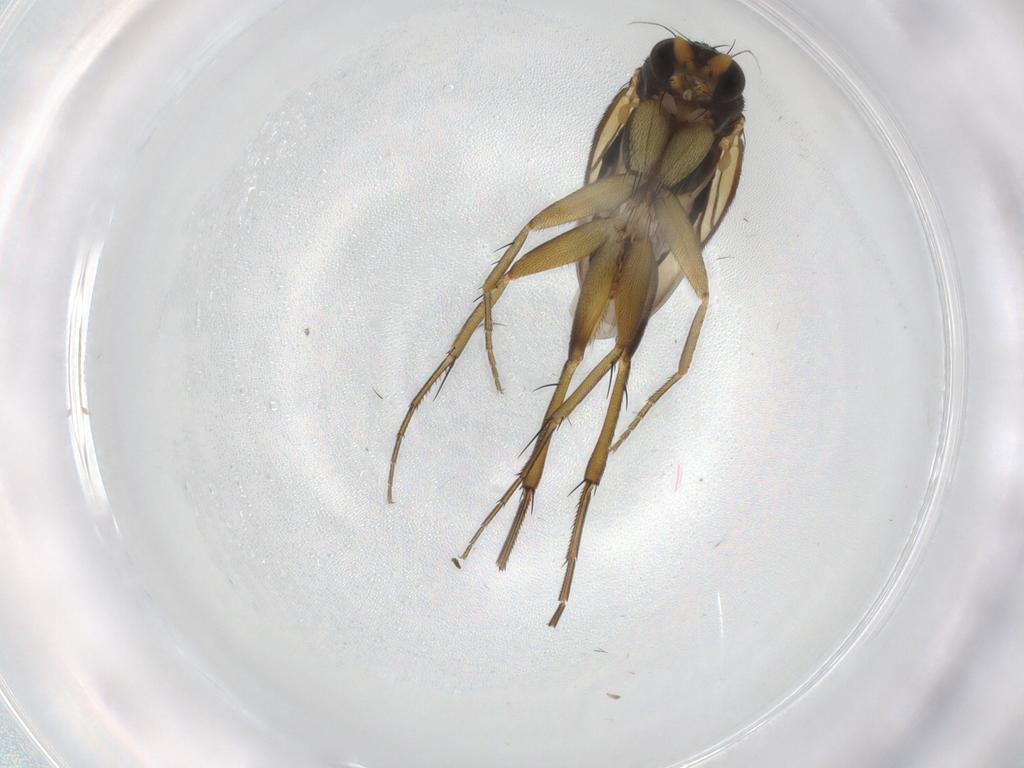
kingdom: Animalia
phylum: Arthropoda
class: Insecta
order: Diptera
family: Phoridae
